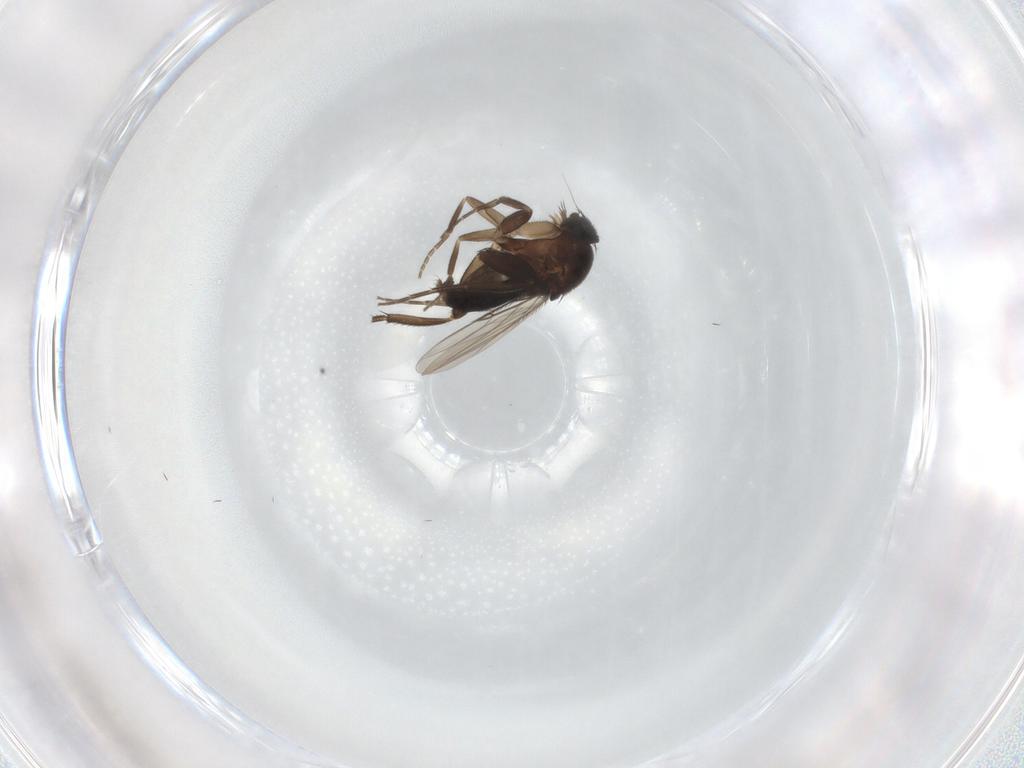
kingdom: Animalia
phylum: Arthropoda
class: Insecta
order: Diptera
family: Phoridae
